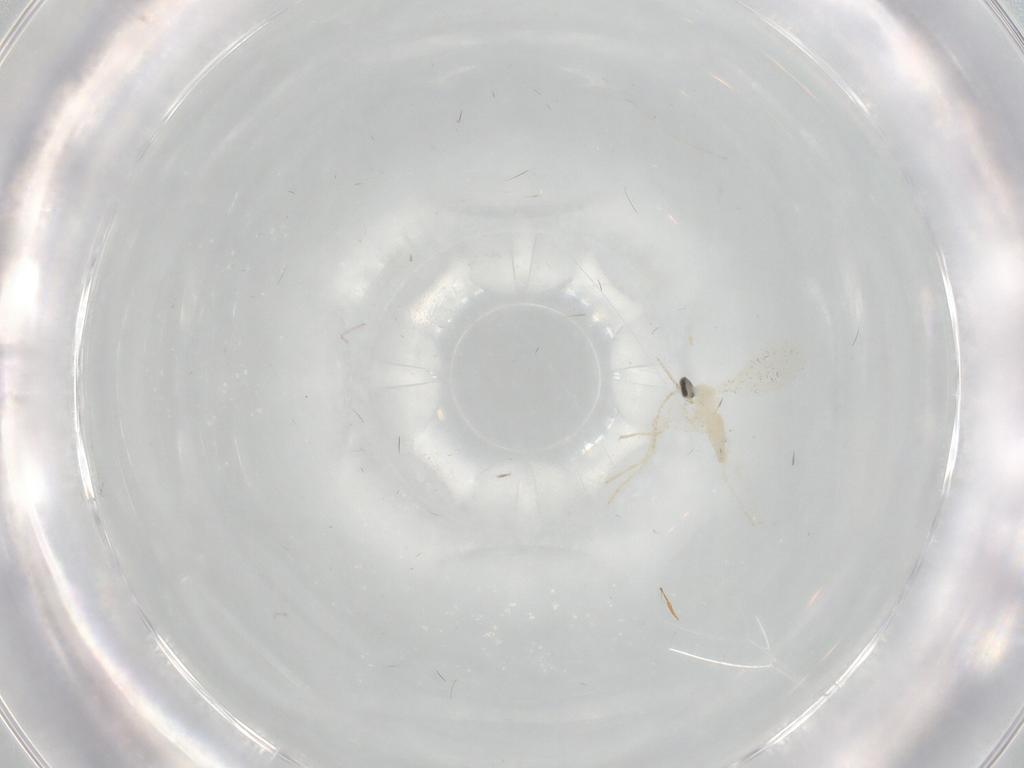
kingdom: Animalia
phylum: Arthropoda
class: Insecta
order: Diptera
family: Cecidomyiidae
